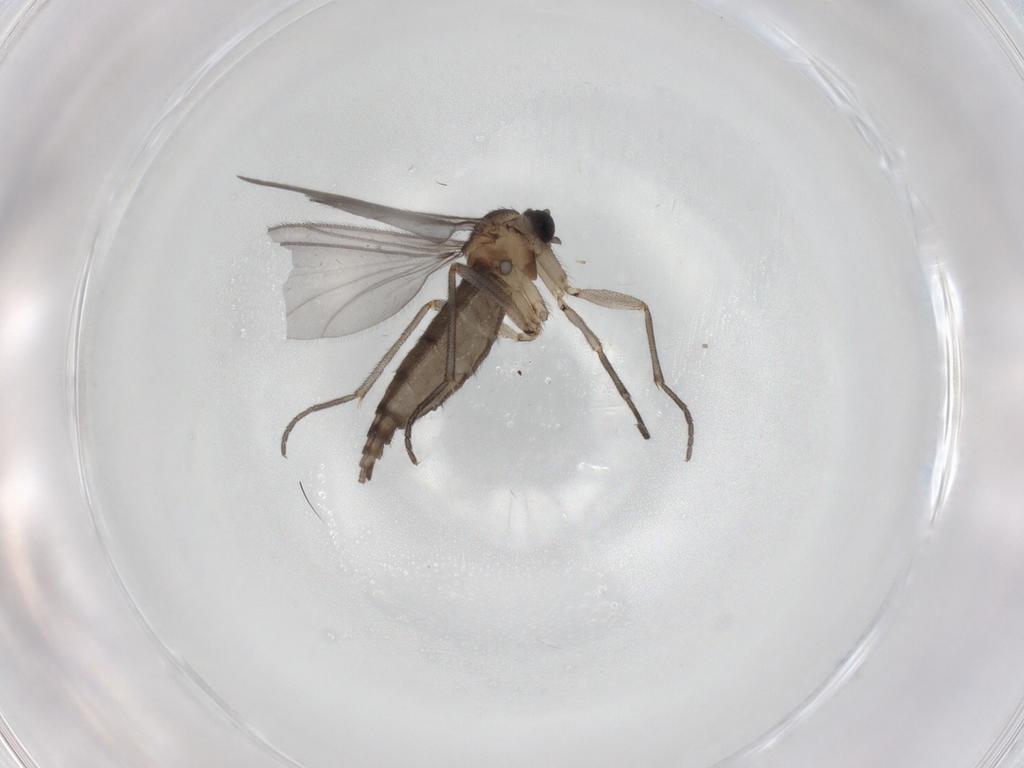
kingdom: Animalia
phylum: Arthropoda
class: Insecta
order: Diptera
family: Sciaridae
